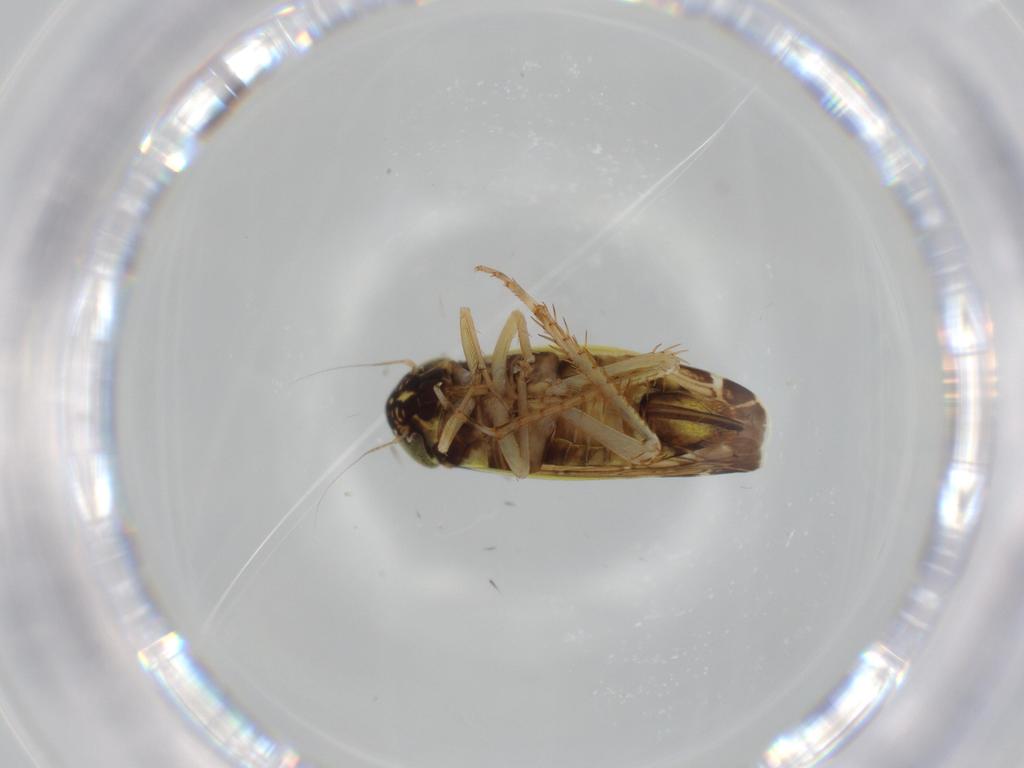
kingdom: Animalia
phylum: Arthropoda
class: Insecta
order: Hemiptera
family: Cicadellidae
